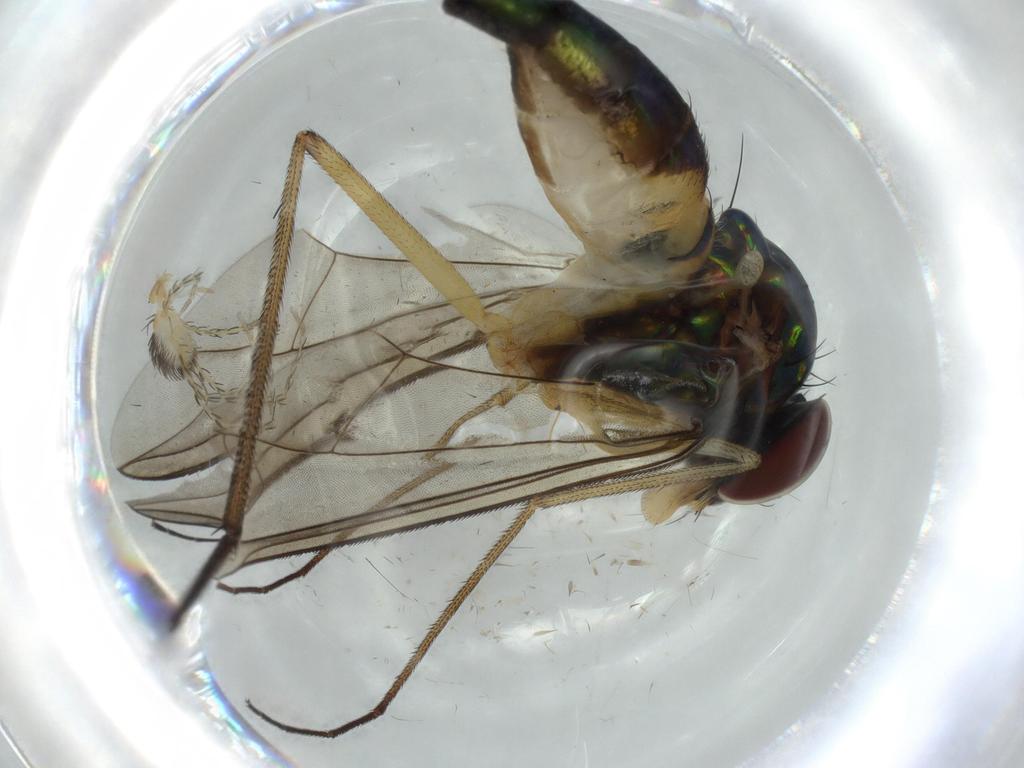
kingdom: Animalia
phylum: Arthropoda
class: Insecta
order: Diptera
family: Dolichopodidae
